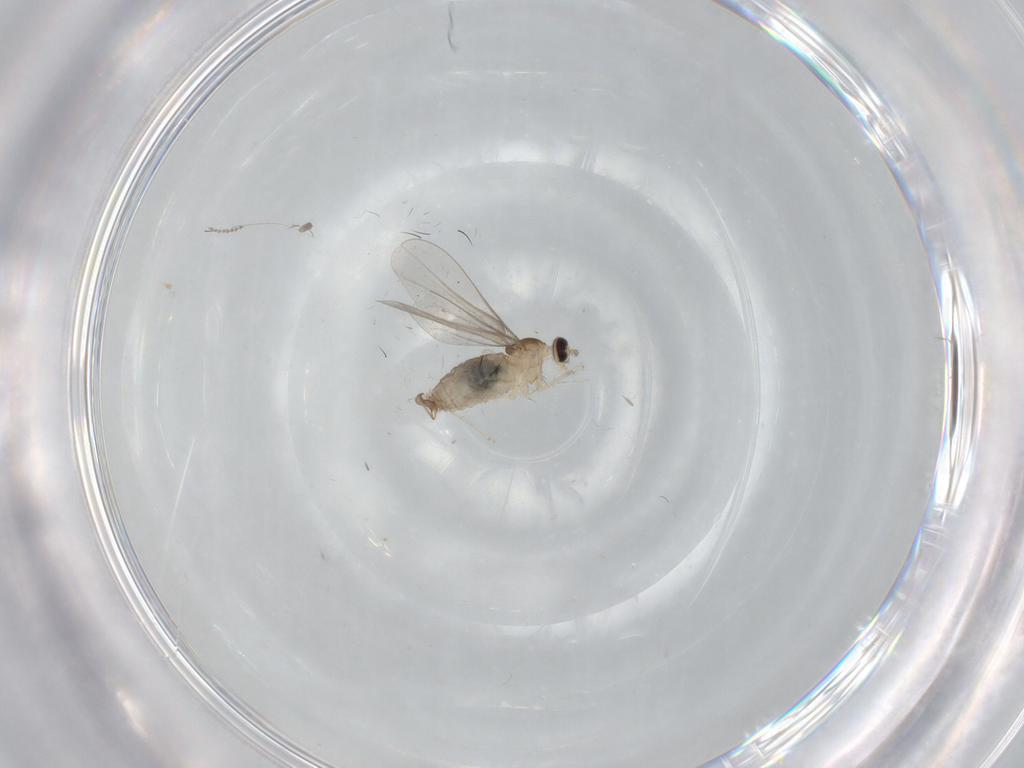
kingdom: Animalia
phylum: Arthropoda
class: Insecta
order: Diptera
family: Cecidomyiidae
